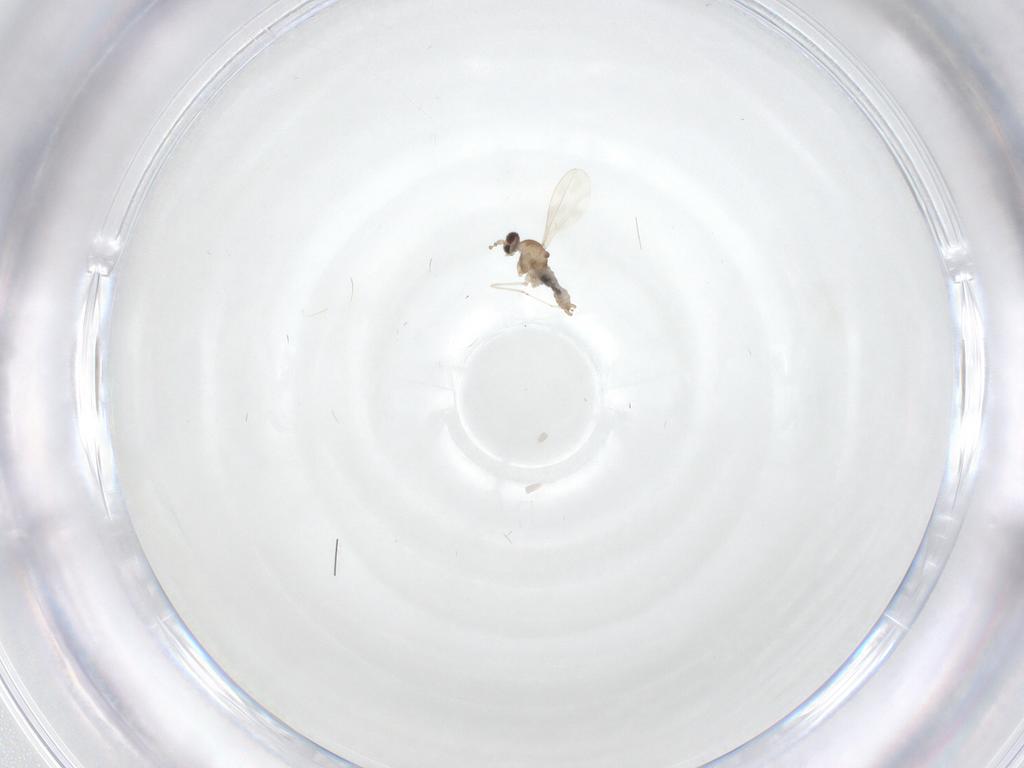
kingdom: Animalia
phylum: Arthropoda
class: Insecta
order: Diptera
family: Cecidomyiidae
